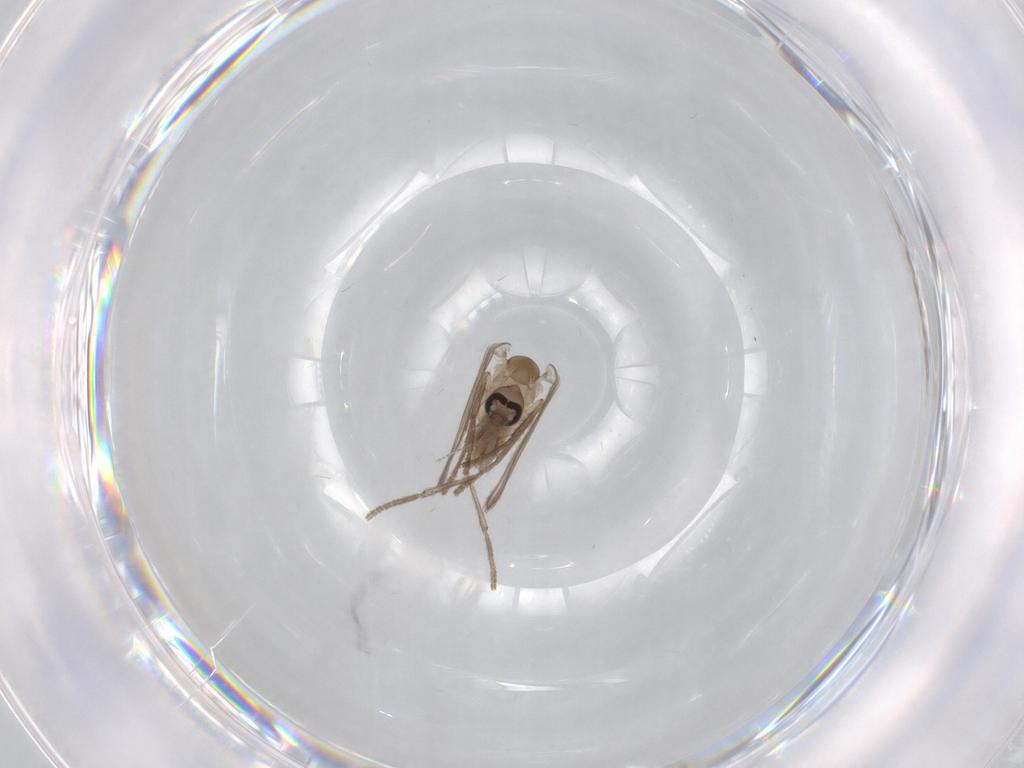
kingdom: Animalia
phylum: Arthropoda
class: Insecta
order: Diptera
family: Psychodidae
